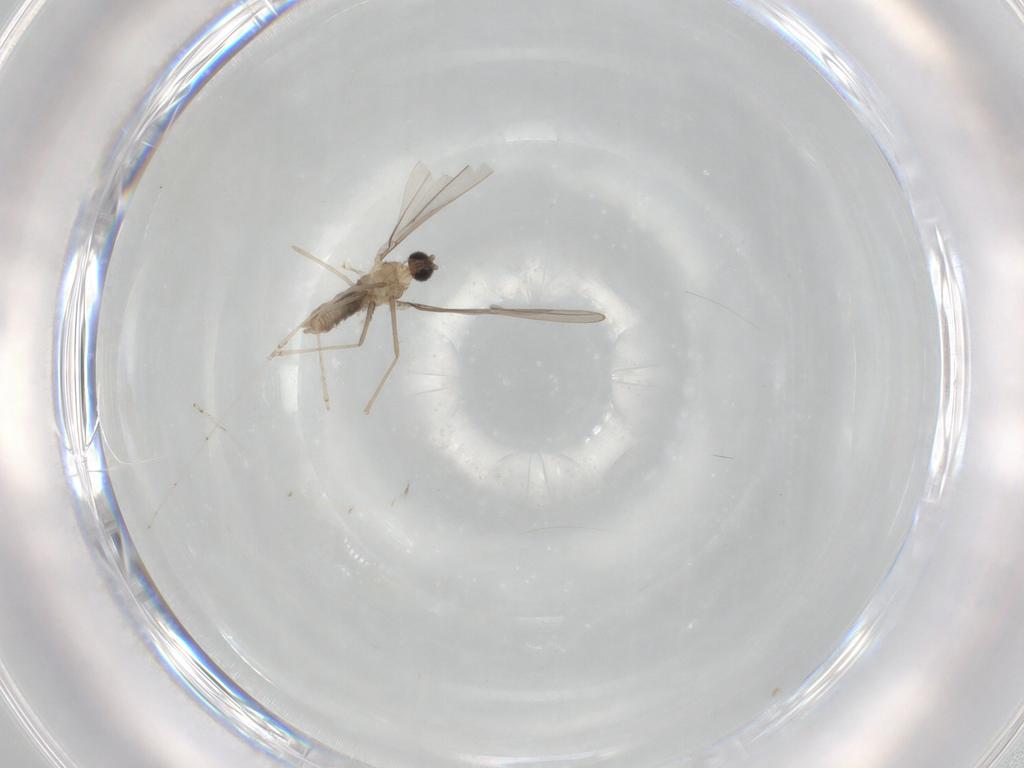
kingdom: Animalia
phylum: Arthropoda
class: Insecta
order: Diptera
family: Cecidomyiidae
